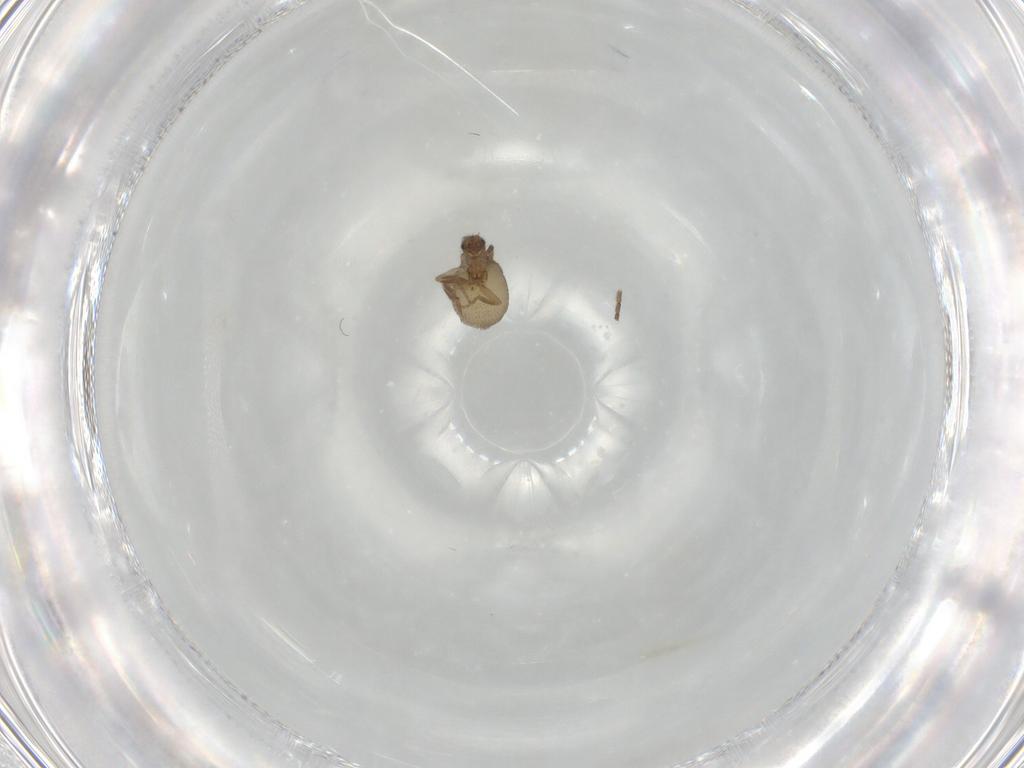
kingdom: Animalia
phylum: Arthropoda
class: Insecta
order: Diptera
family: Phoridae
